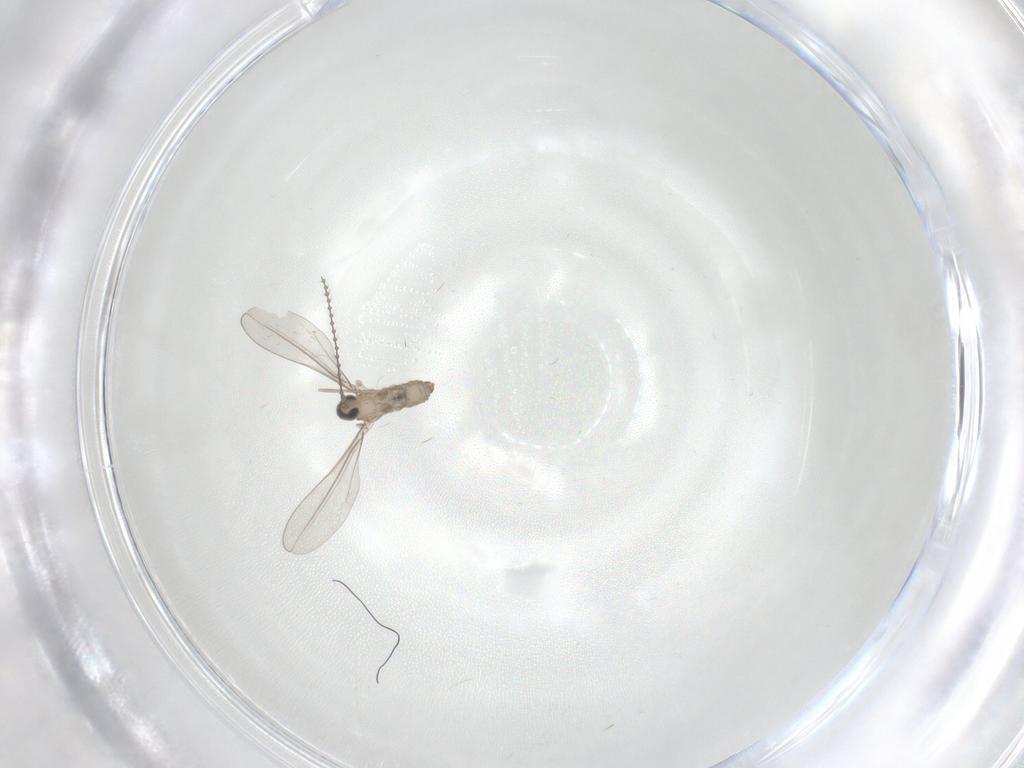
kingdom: Animalia
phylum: Arthropoda
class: Insecta
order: Diptera
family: Cecidomyiidae
